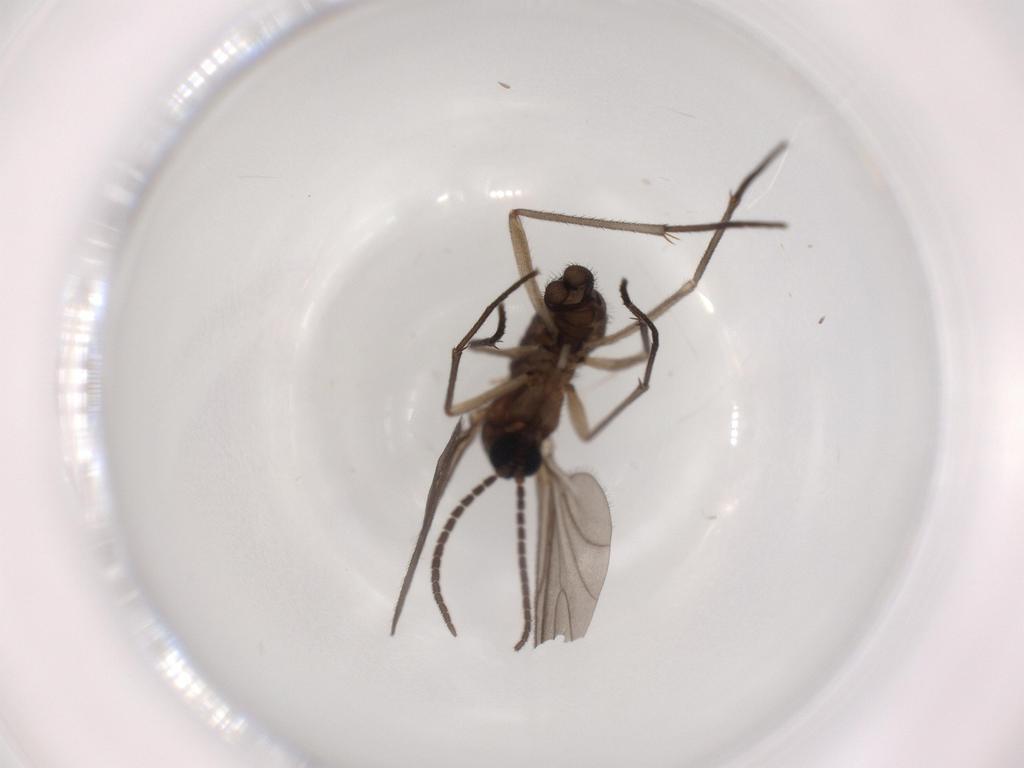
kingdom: Animalia
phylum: Arthropoda
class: Insecta
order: Diptera
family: Sciaridae
